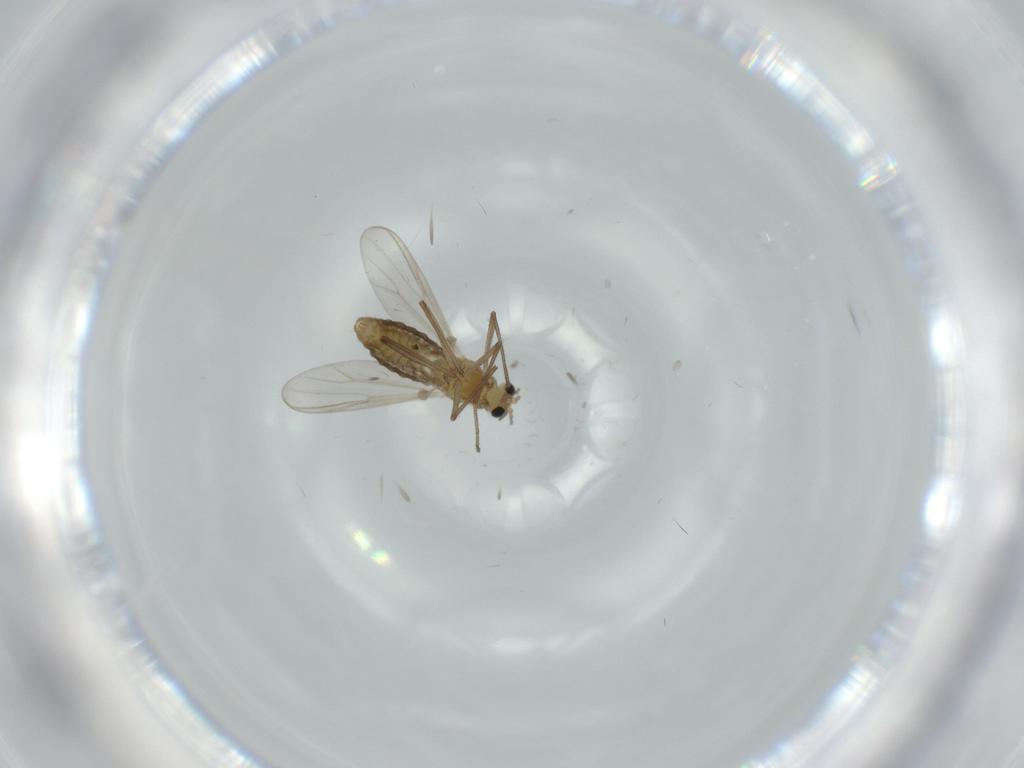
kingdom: Animalia
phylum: Arthropoda
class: Insecta
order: Diptera
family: Chironomidae
